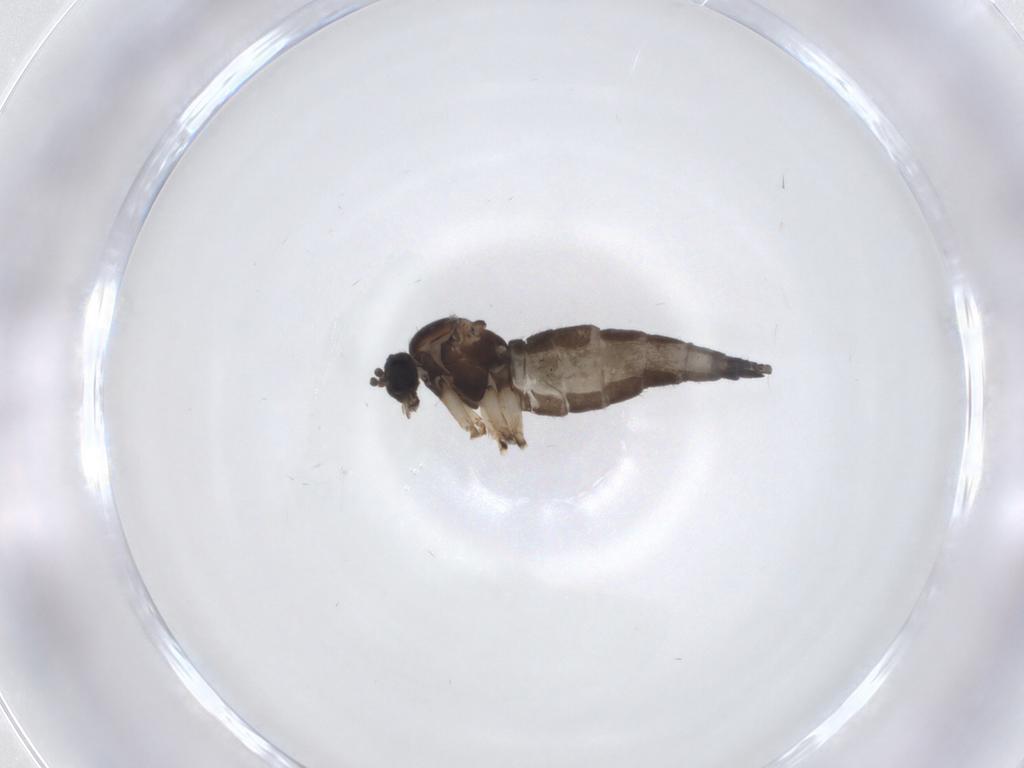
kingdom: Animalia
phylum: Arthropoda
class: Insecta
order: Diptera
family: Sciaridae
